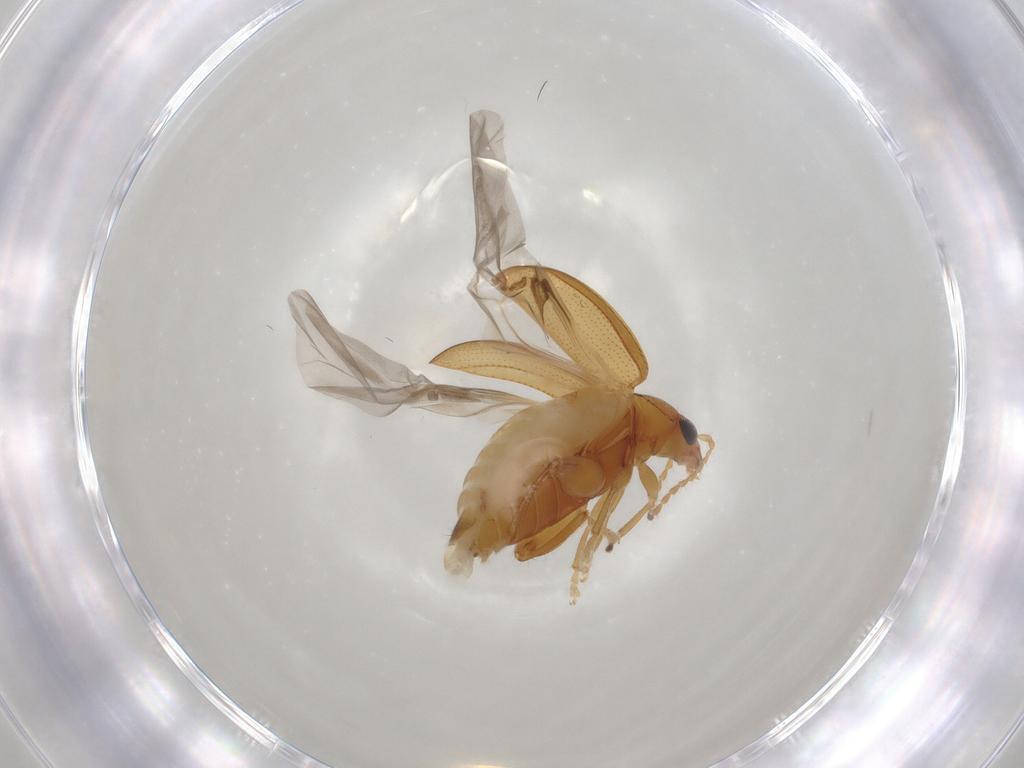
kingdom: Animalia
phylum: Arthropoda
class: Insecta
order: Coleoptera
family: Chrysomelidae
